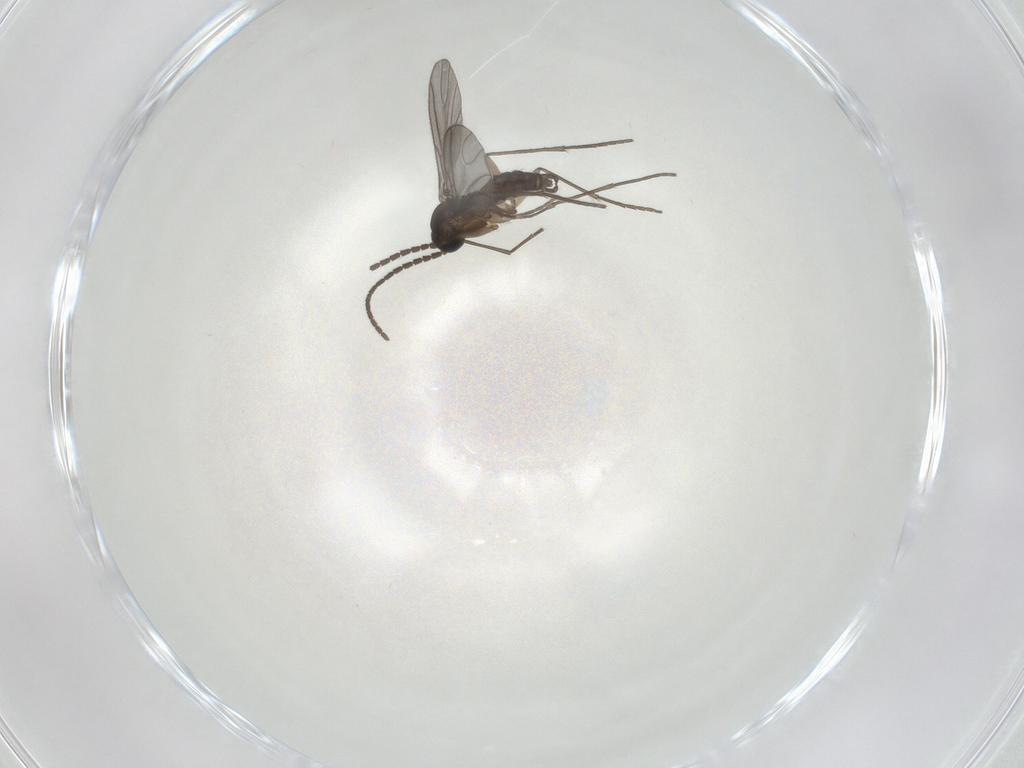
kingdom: Animalia
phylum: Arthropoda
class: Insecta
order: Diptera
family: Sciaridae
